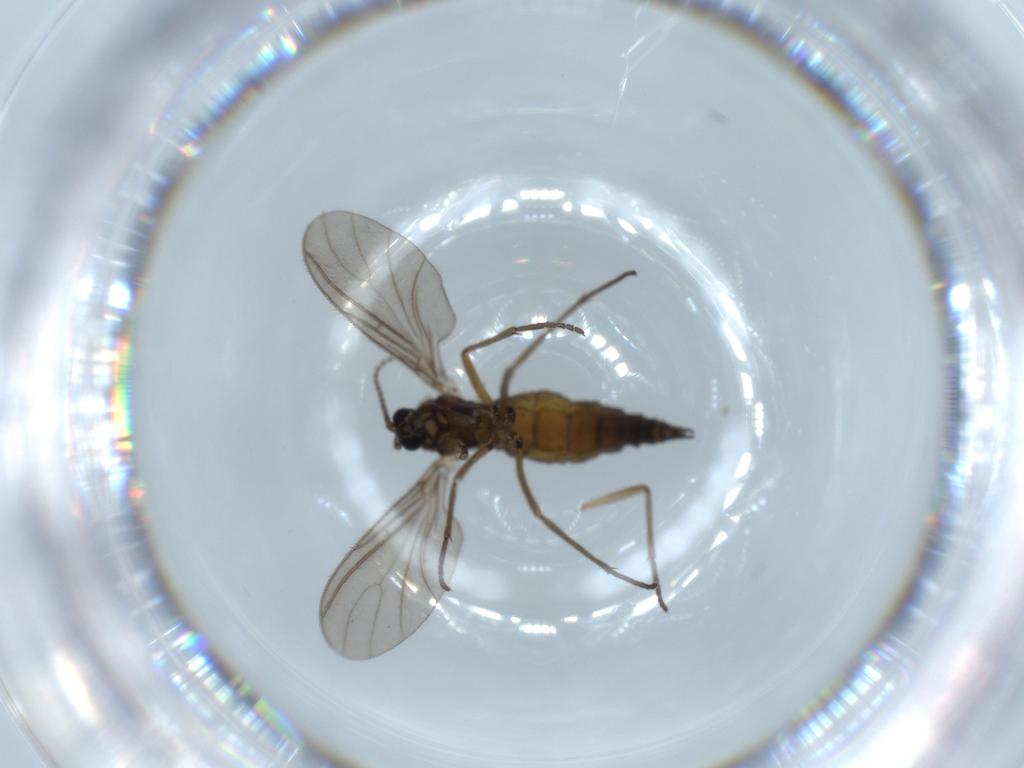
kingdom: Animalia
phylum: Arthropoda
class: Insecta
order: Diptera
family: Sciaridae
